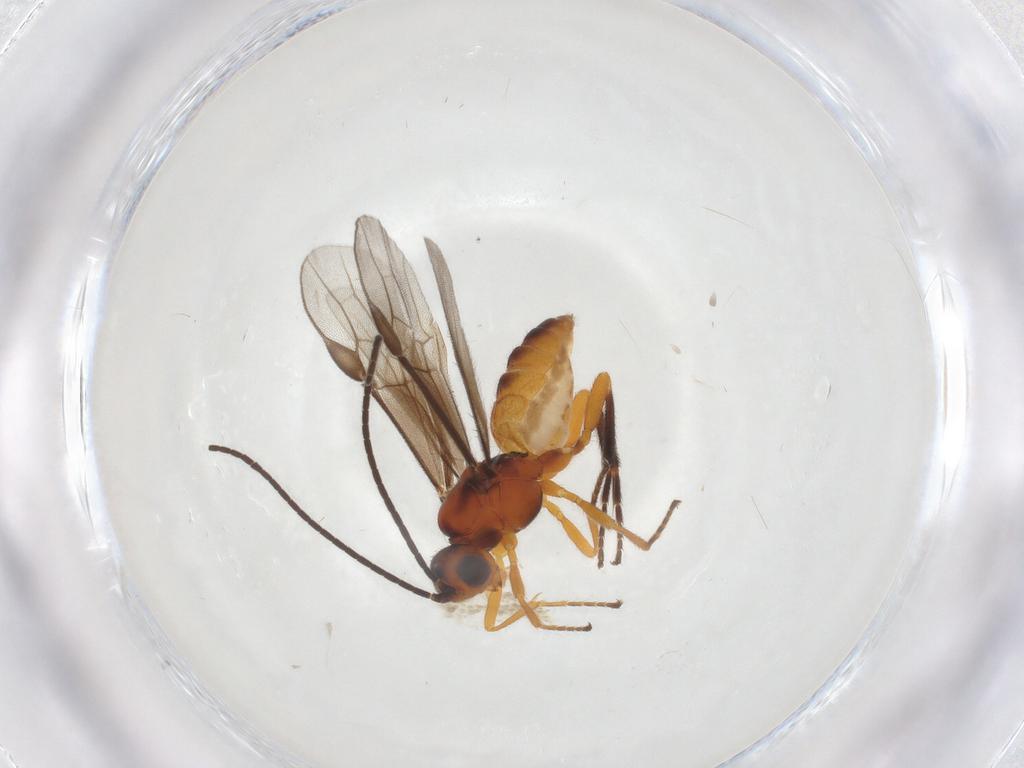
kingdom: Animalia
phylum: Arthropoda
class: Insecta
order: Hymenoptera
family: Braconidae
